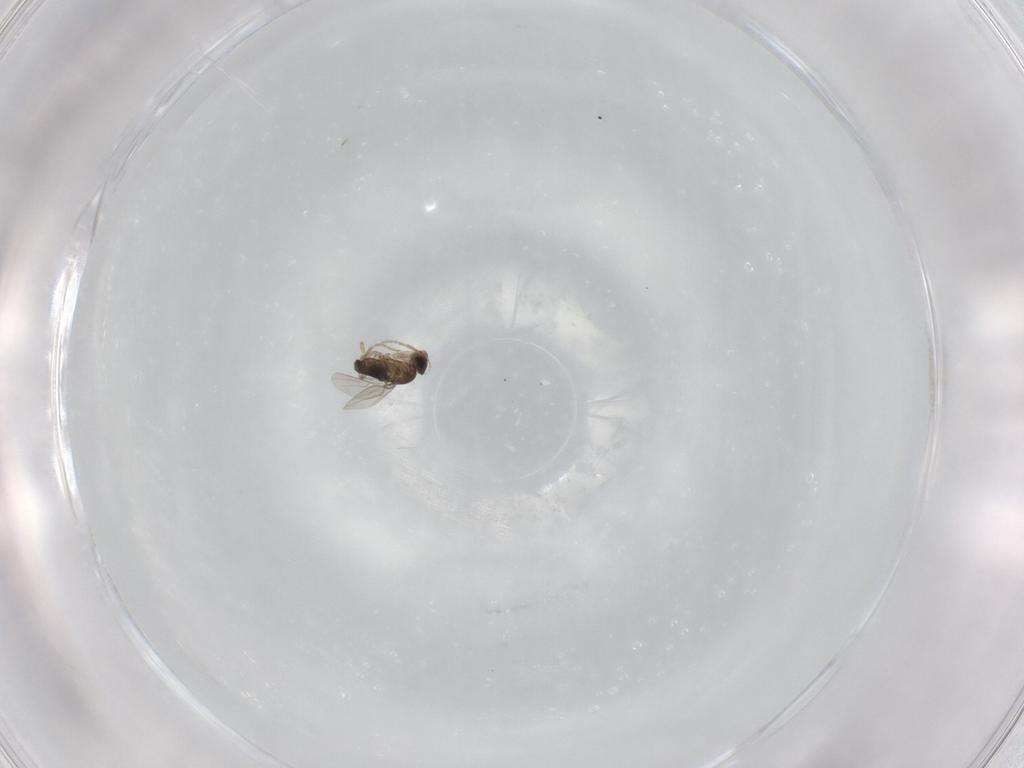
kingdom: Animalia
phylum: Arthropoda
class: Insecta
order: Diptera
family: Phoridae
